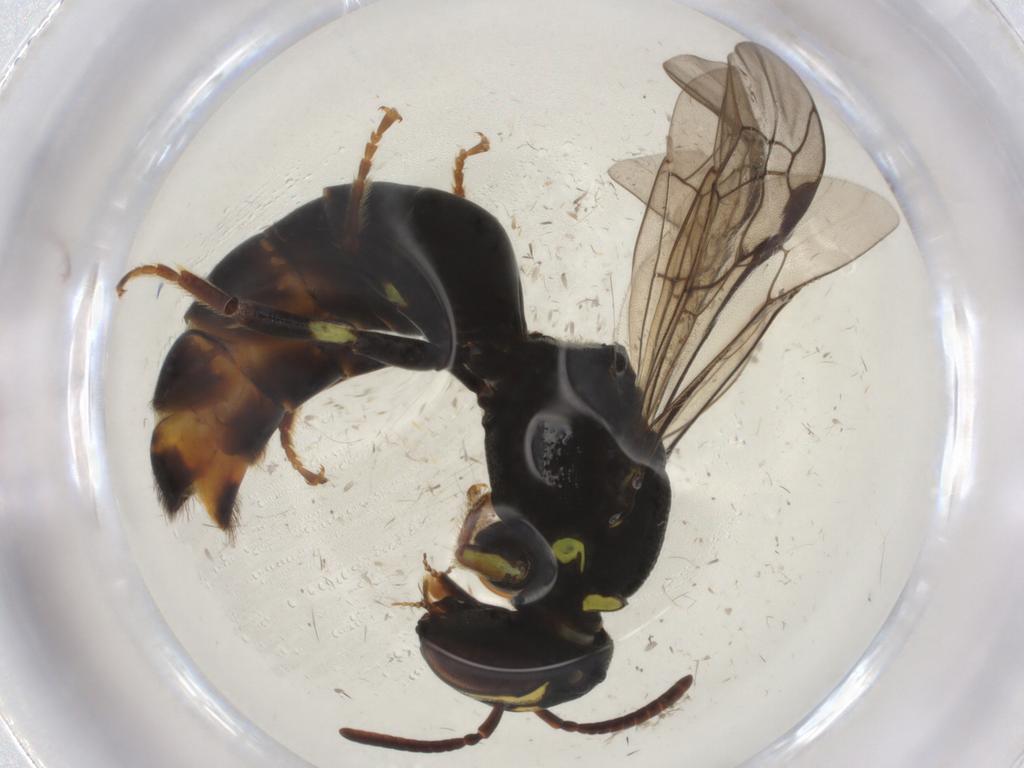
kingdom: Animalia
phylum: Arthropoda
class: Insecta
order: Hymenoptera
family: Colletidae
